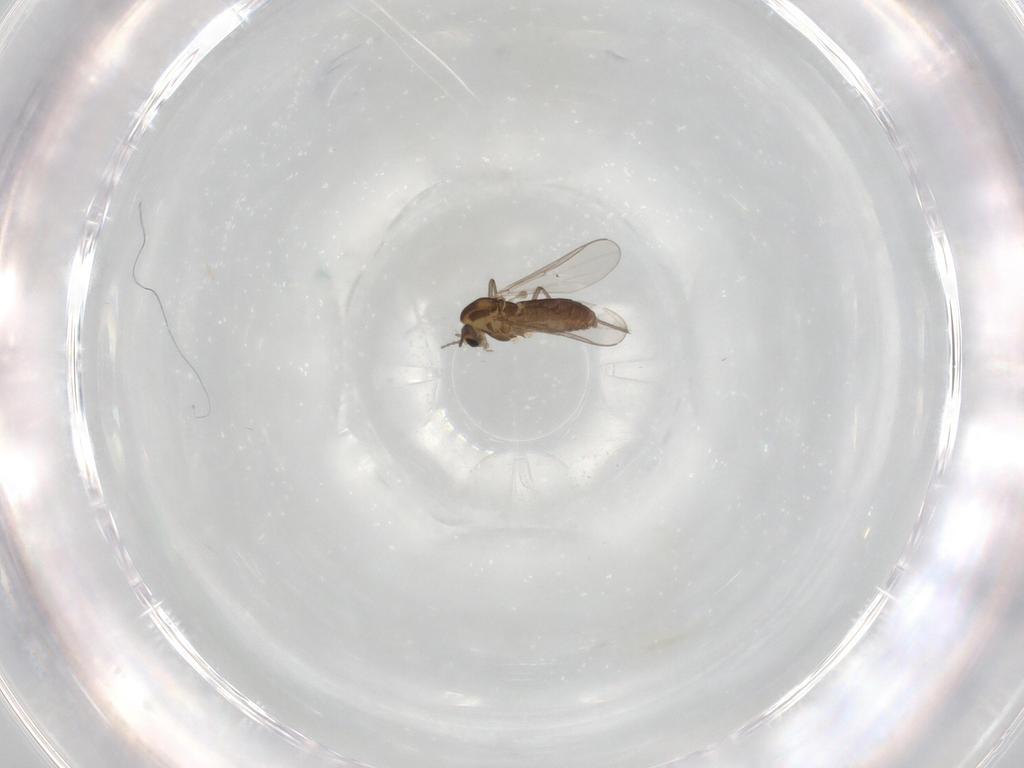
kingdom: Animalia
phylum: Arthropoda
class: Insecta
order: Diptera
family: Chironomidae
